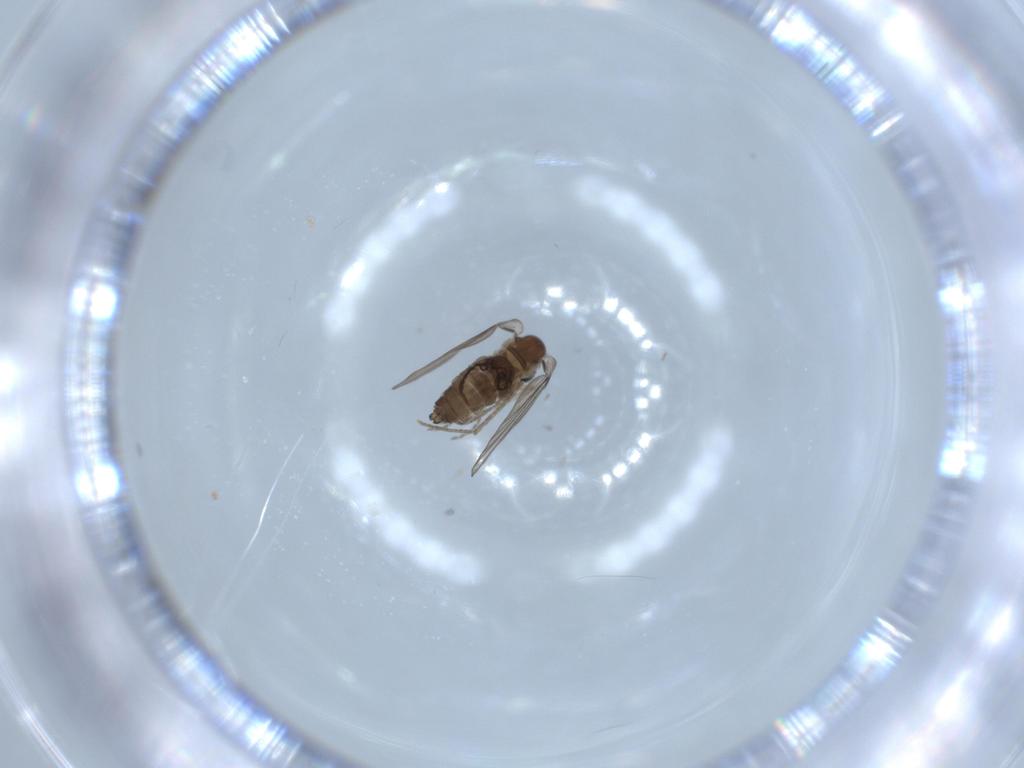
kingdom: Animalia
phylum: Arthropoda
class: Insecta
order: Diptera
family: Psychodidae
